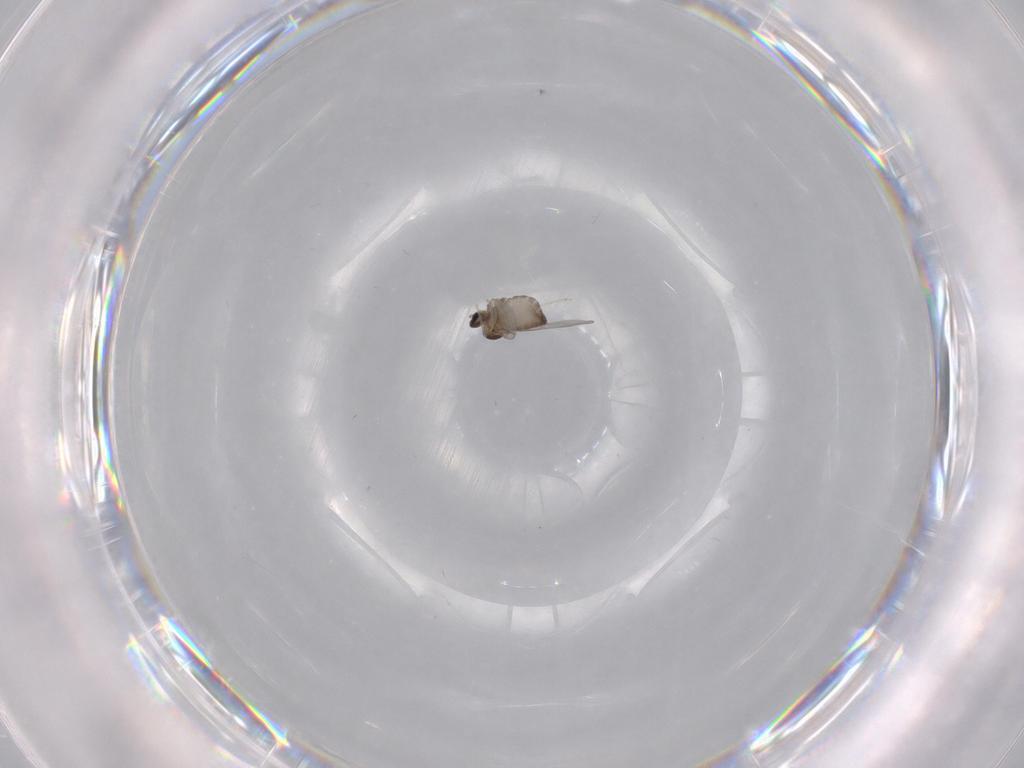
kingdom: Animalia
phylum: Arthropoda
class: Insecta
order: Diptera
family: Cecidomyiidae
